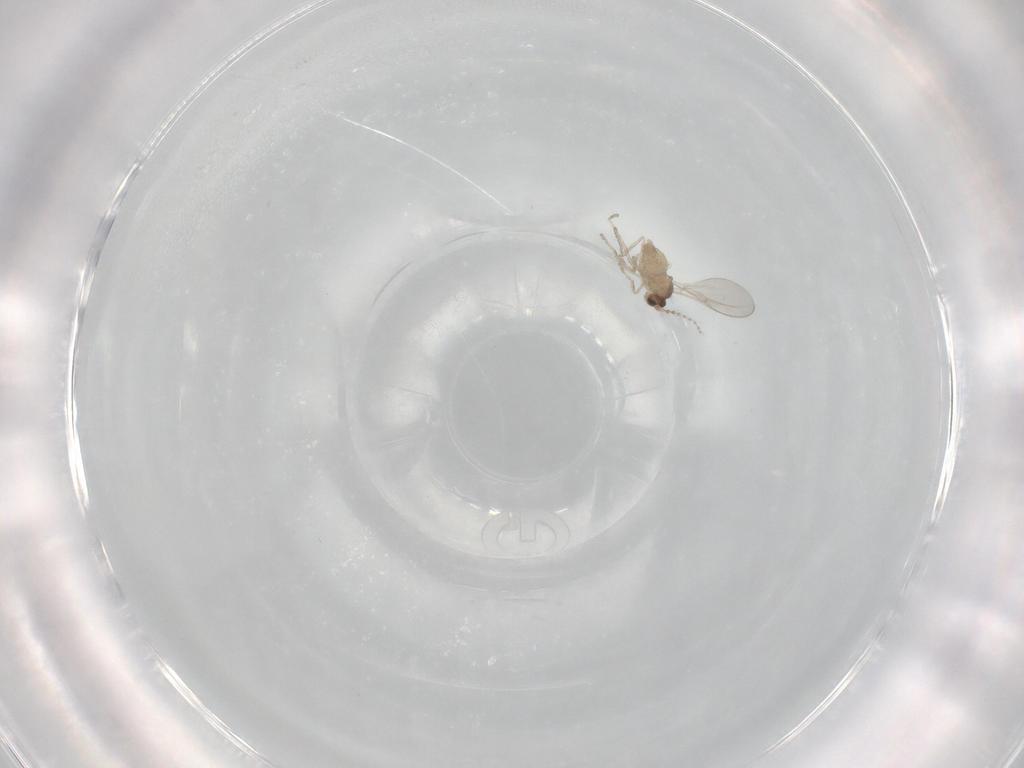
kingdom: Animalia
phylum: Arthropoda
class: Insecta
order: Diptera
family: Cecidomyiidae
